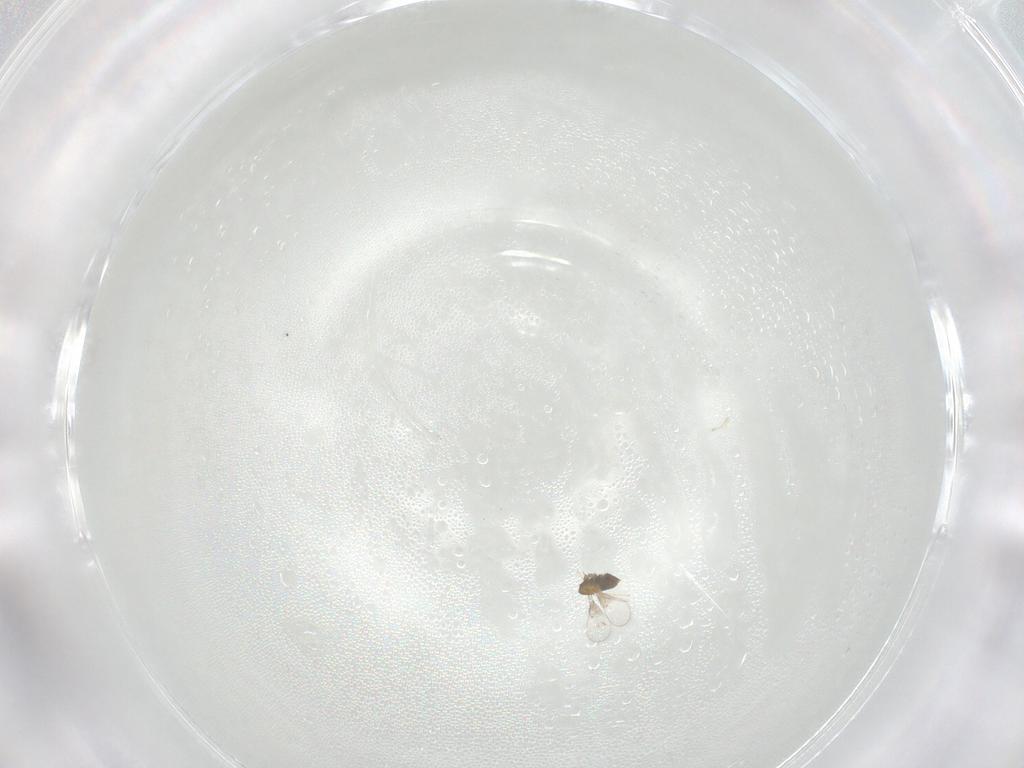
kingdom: Animalia
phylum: Arthropoda
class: Insecta
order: Hymenoptera
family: Trichogrammatidae
